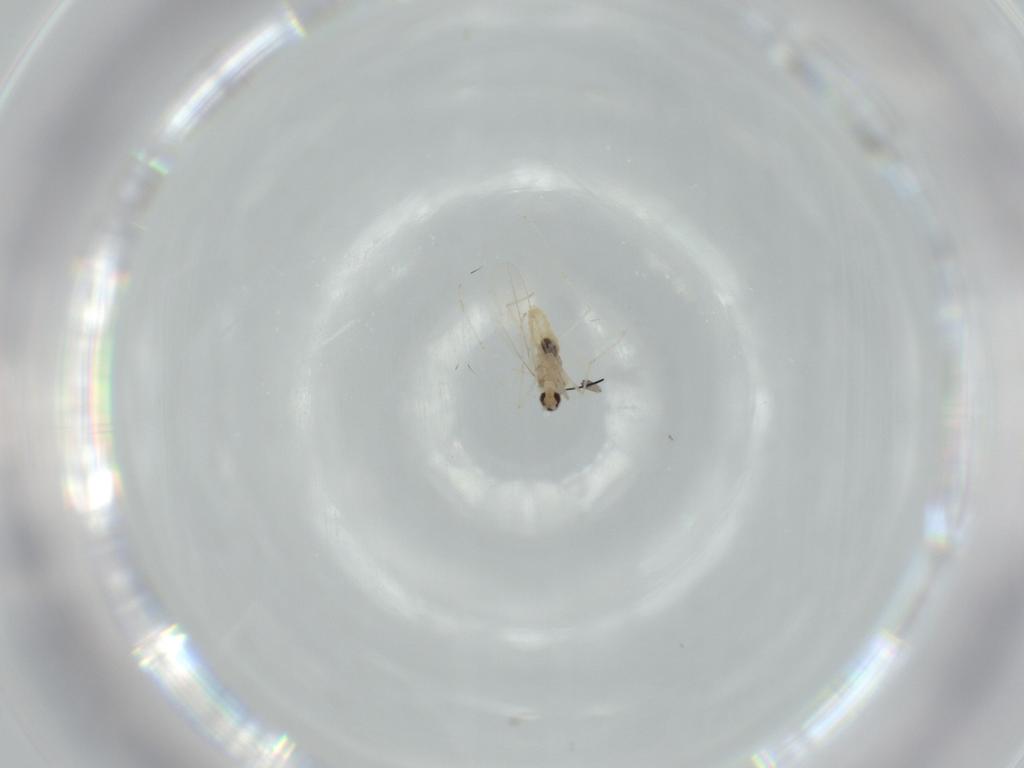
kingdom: Animalia
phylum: Arthropoda
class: Insecta
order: Diptera
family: Cecidomyiidae
